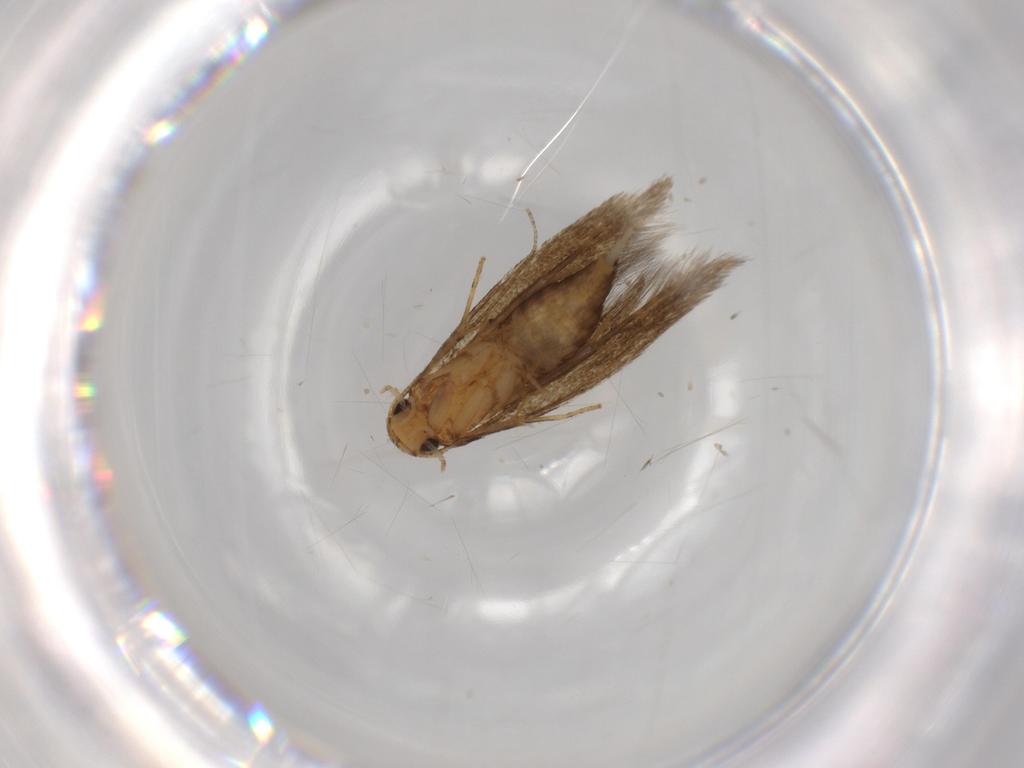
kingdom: Animalia
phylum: Arthropoda
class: Insecta
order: Lepidoptera
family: Tineidae
